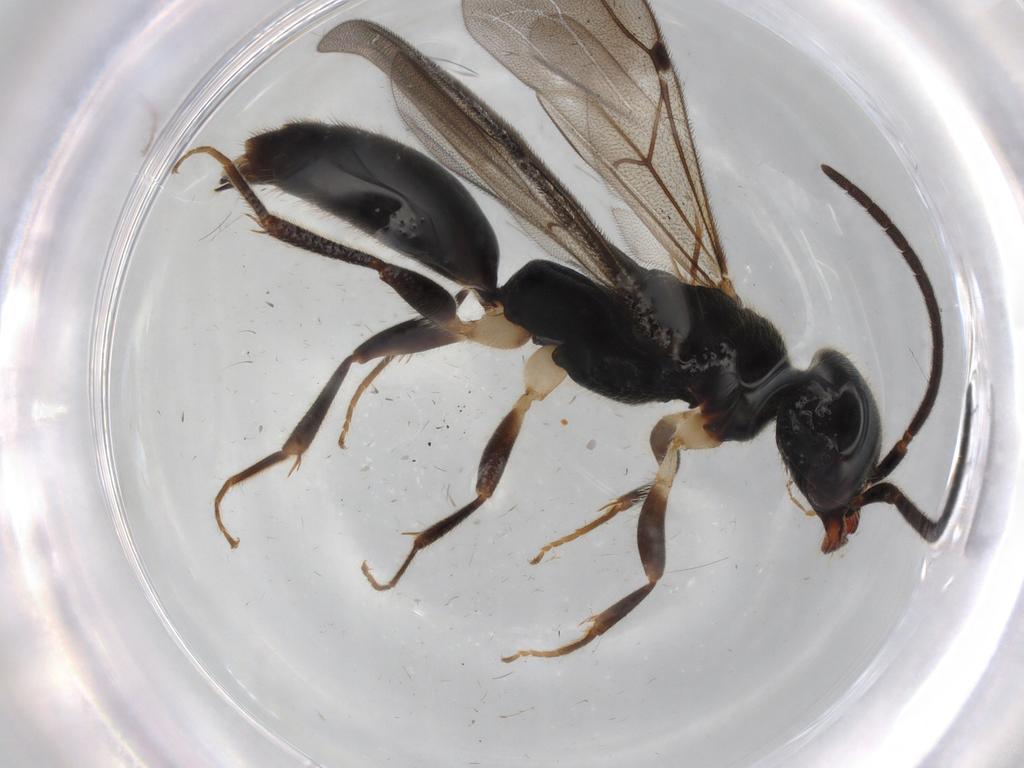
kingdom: Animalia
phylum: Arthropoda
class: Insecta
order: Hymenoptera
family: Bethylidae
